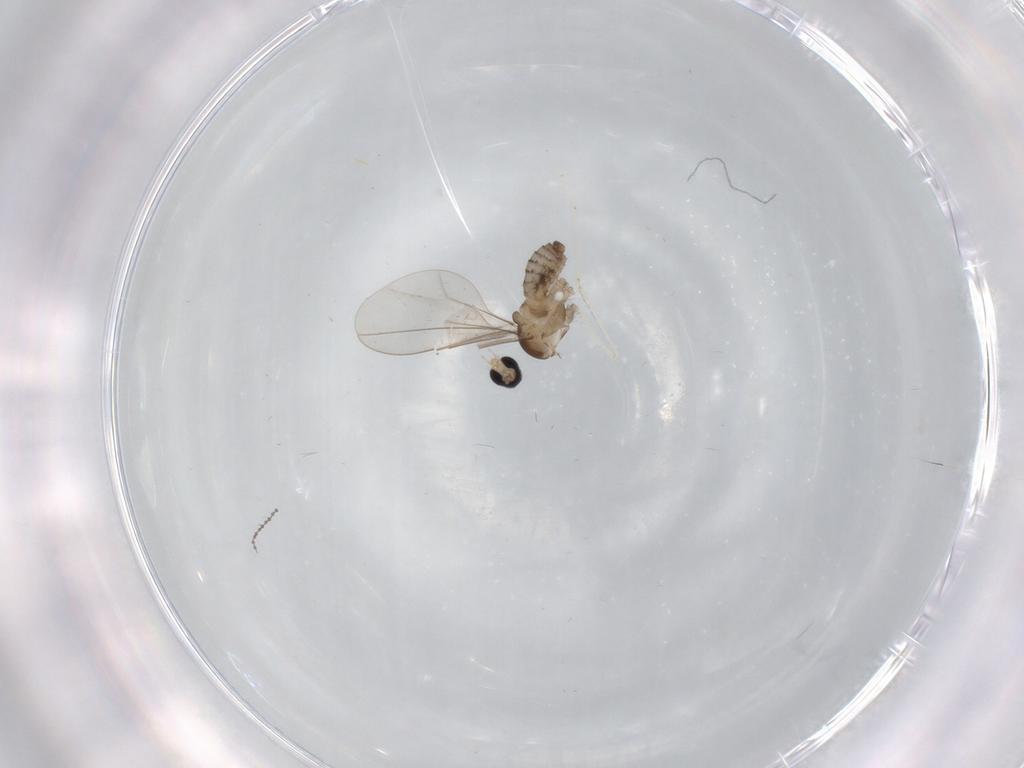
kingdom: Animalia
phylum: Arthropoda
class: Insecta
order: Diptera
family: Cecidomyiidae
